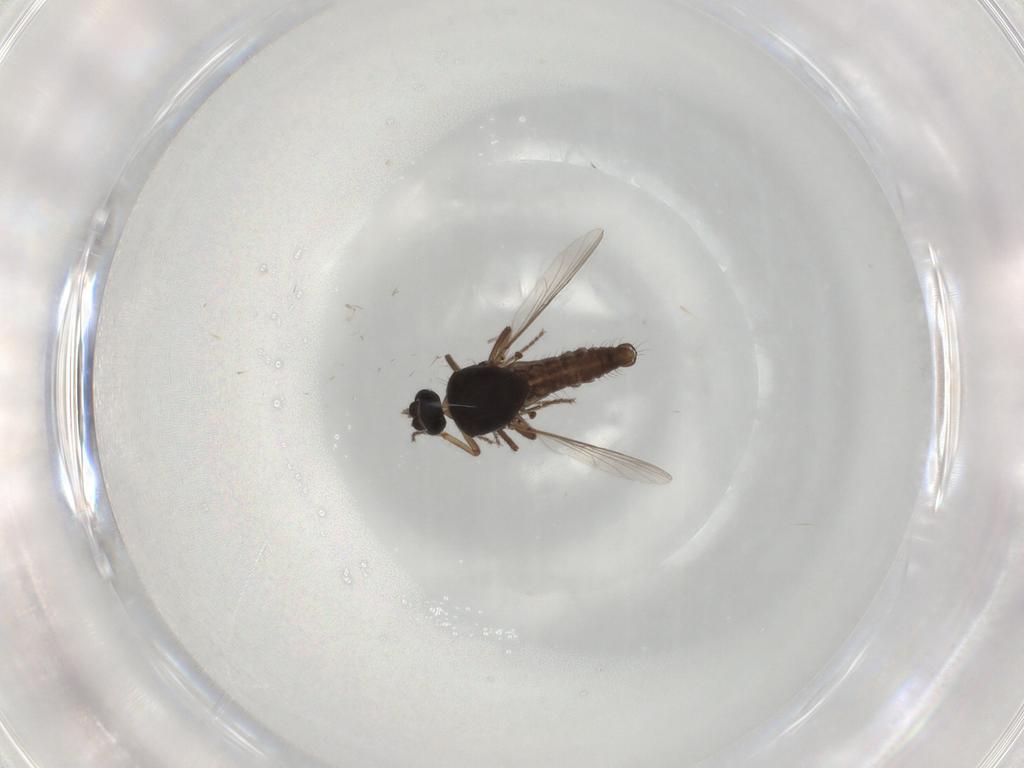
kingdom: Animalia
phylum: Arthropoda
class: Insecta
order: Diptera
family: Ceratopogonidae
